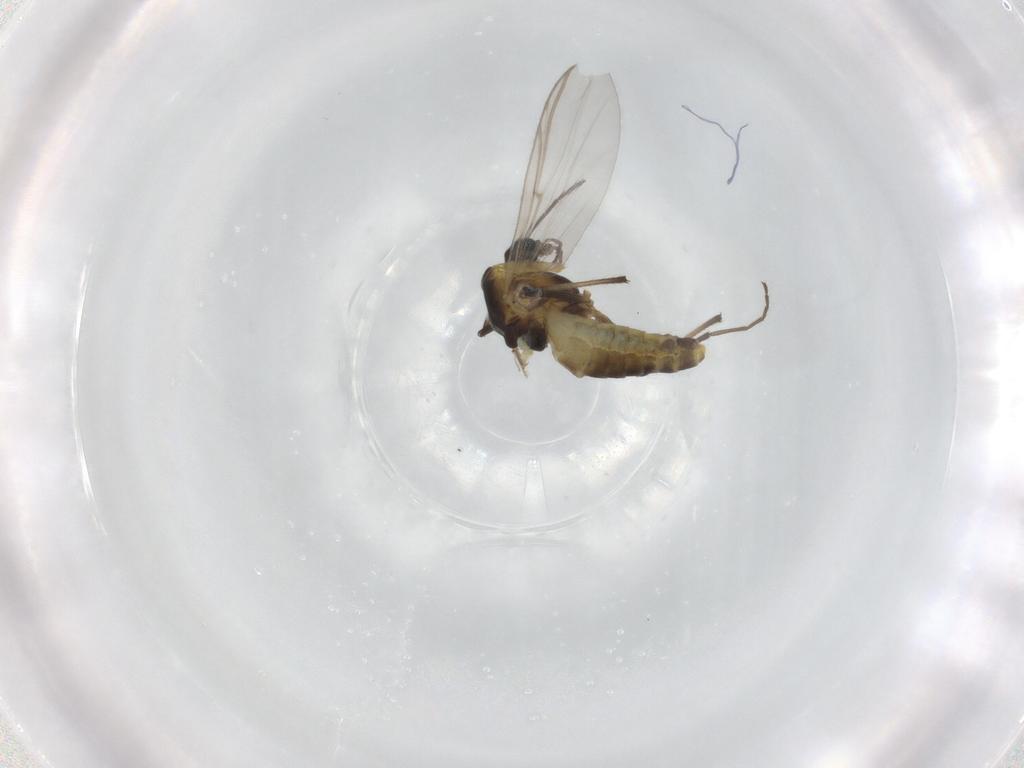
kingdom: Animalia
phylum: Arthropoda
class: Insecta
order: Diptera
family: Chironomidae
